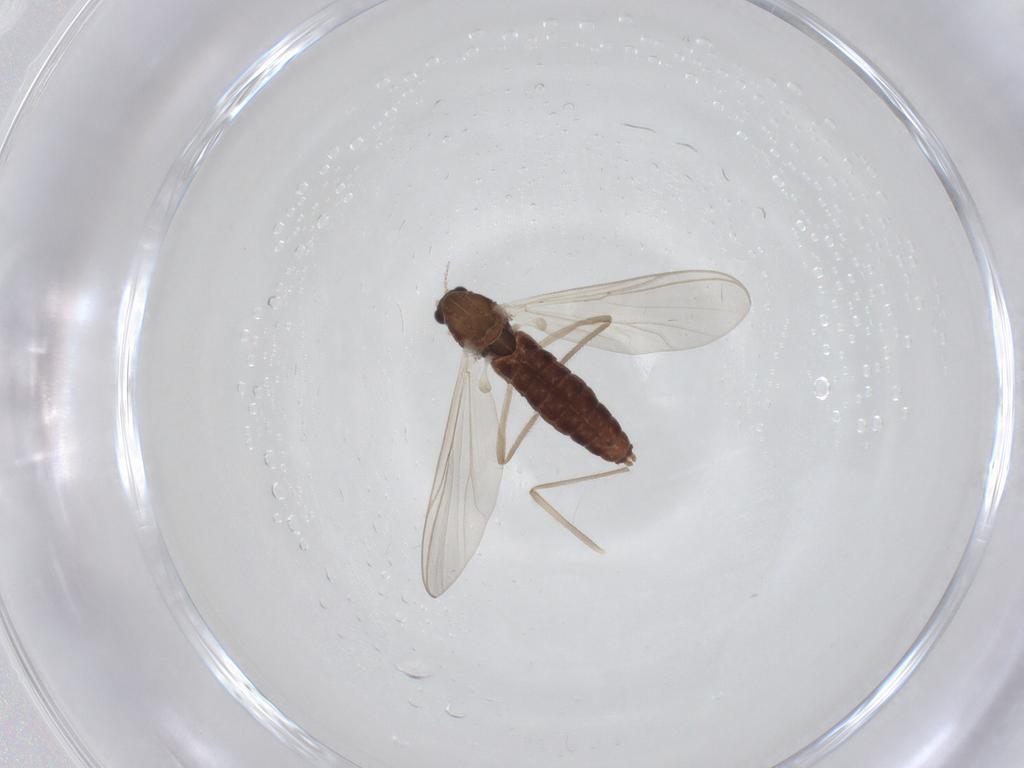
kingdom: Animalia
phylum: Arthropoda
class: Insecta
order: Diptera
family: Chironomidae
